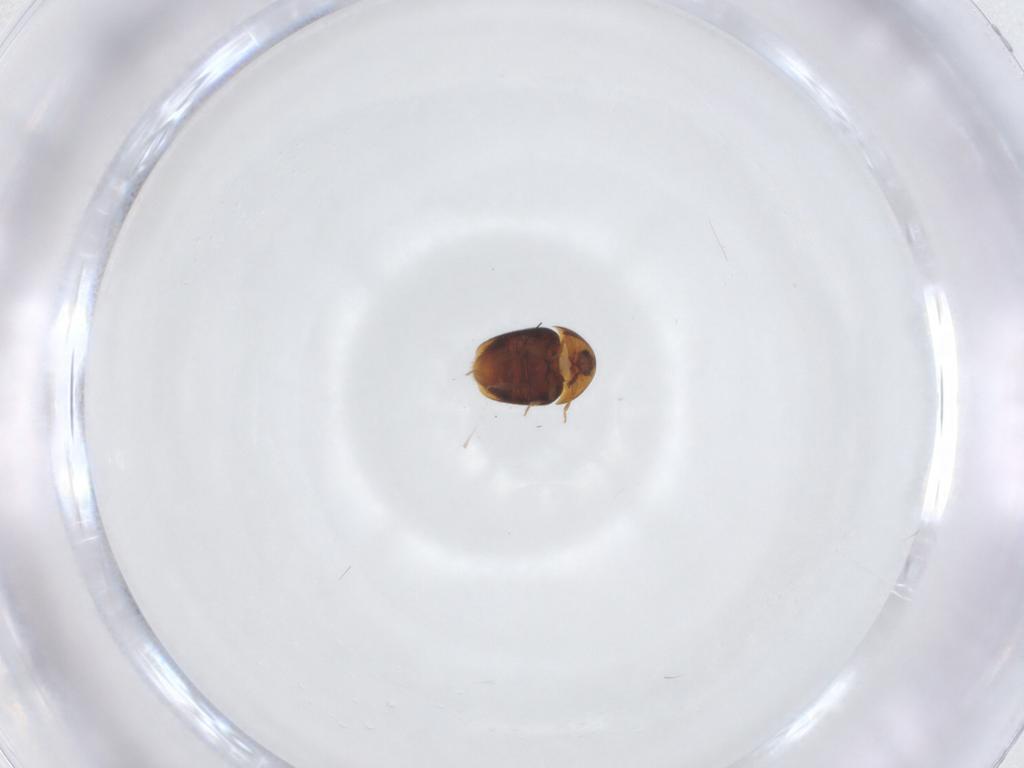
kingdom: Animalia
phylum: Arthropoda
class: Insecta
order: Coleoptera
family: Corylophidae
